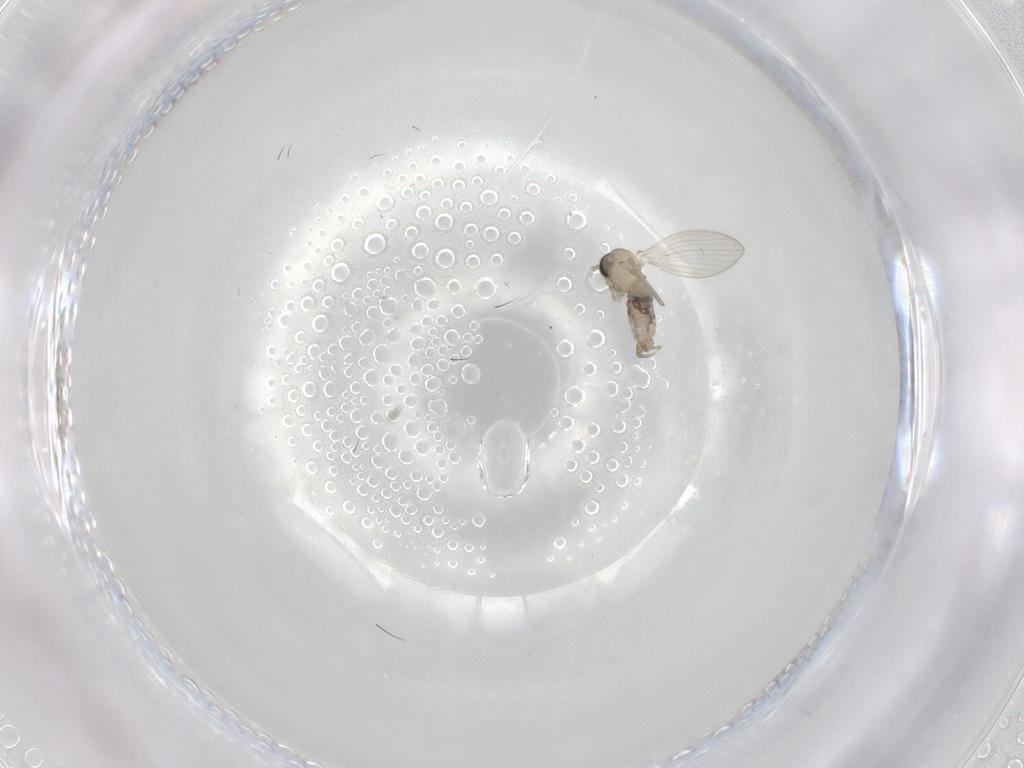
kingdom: Animalia
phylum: Arthropoda
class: Insecta
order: Diptera
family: Psychodidae
